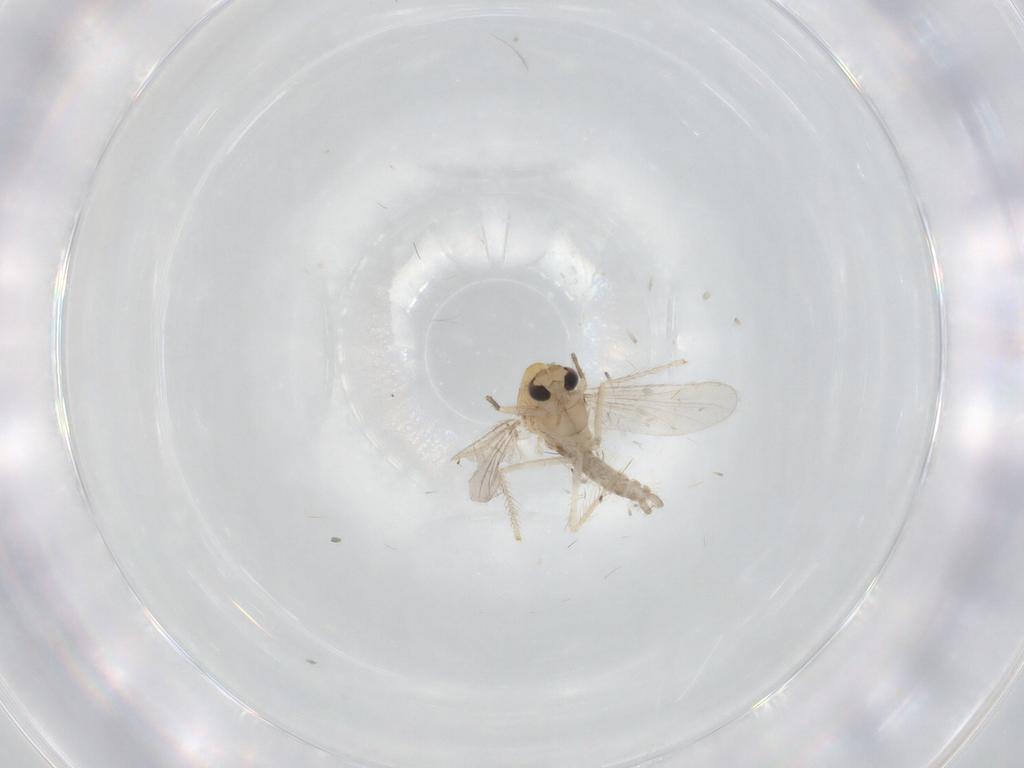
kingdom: Animalia
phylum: Arthropoda
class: Insecta
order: Diptera
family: Chironomidae
